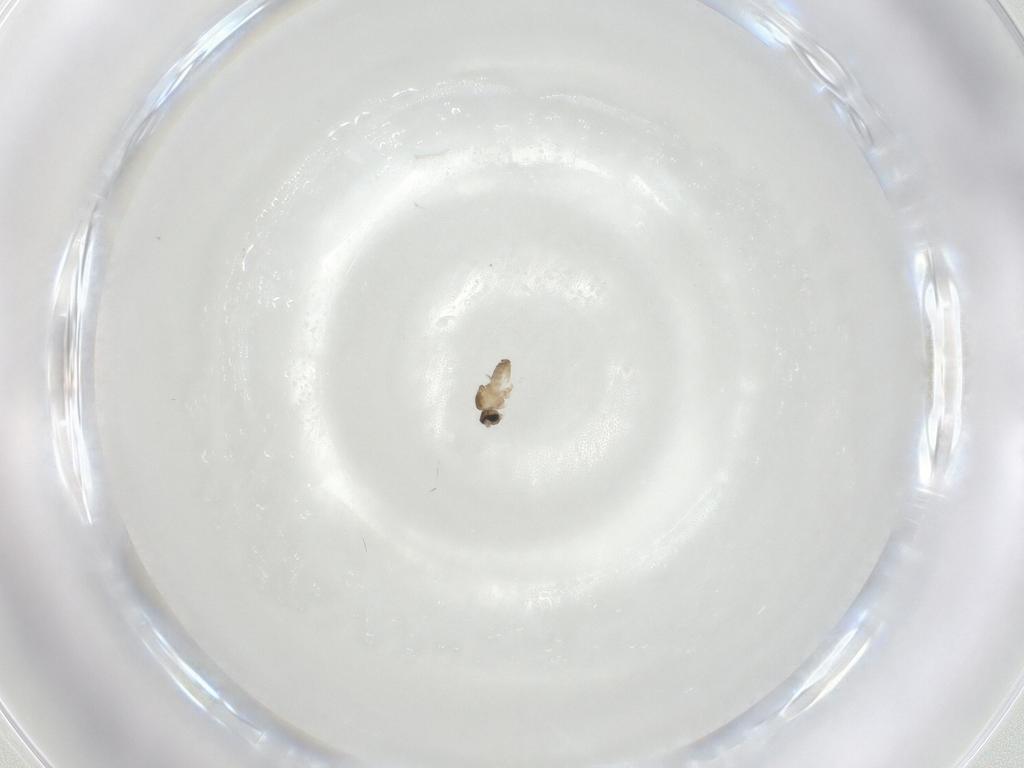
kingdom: Animalia
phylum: Arthropoda
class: Insecta
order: Diptera
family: Cecidomyiidae
